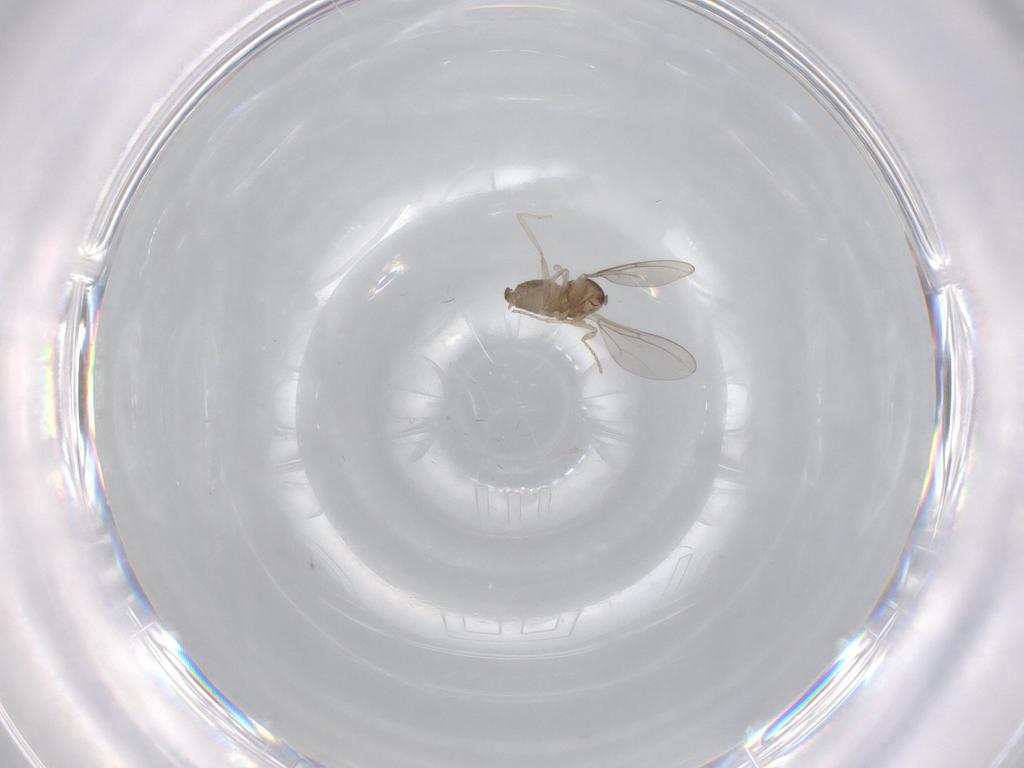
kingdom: Animalia
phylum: Arthropoda
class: Insecta
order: Diptera
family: Cecidomyiidae
